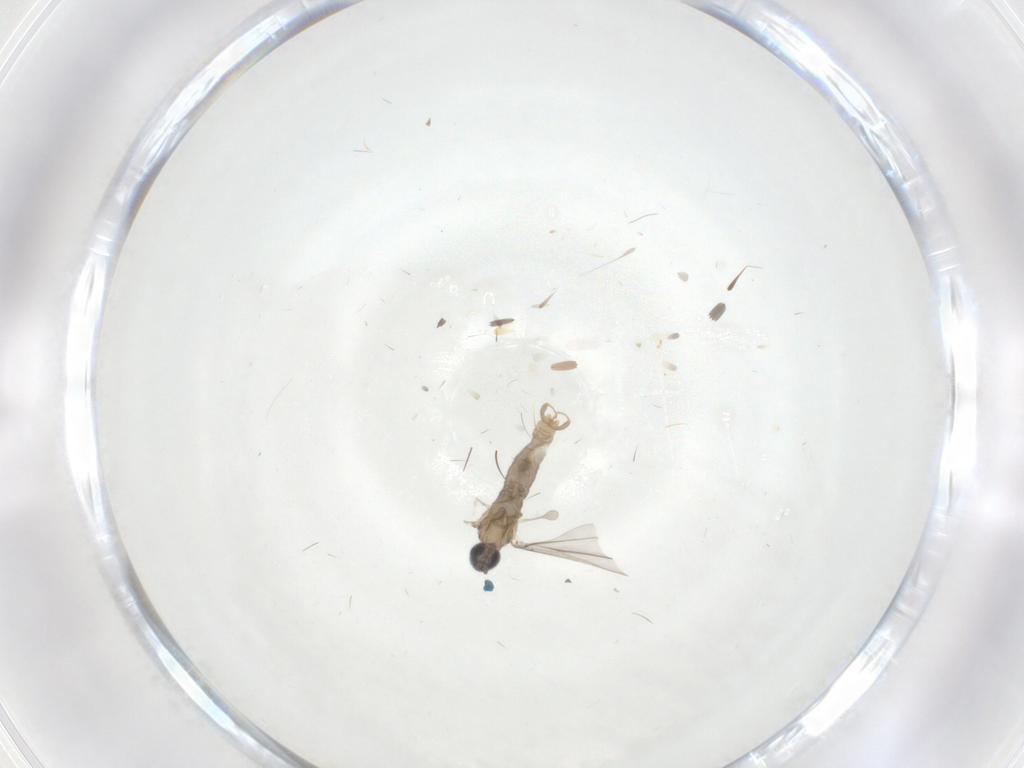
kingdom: Animalia
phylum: Arthropoda
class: Insecta
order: Diptera
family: Cecidomyiidae
